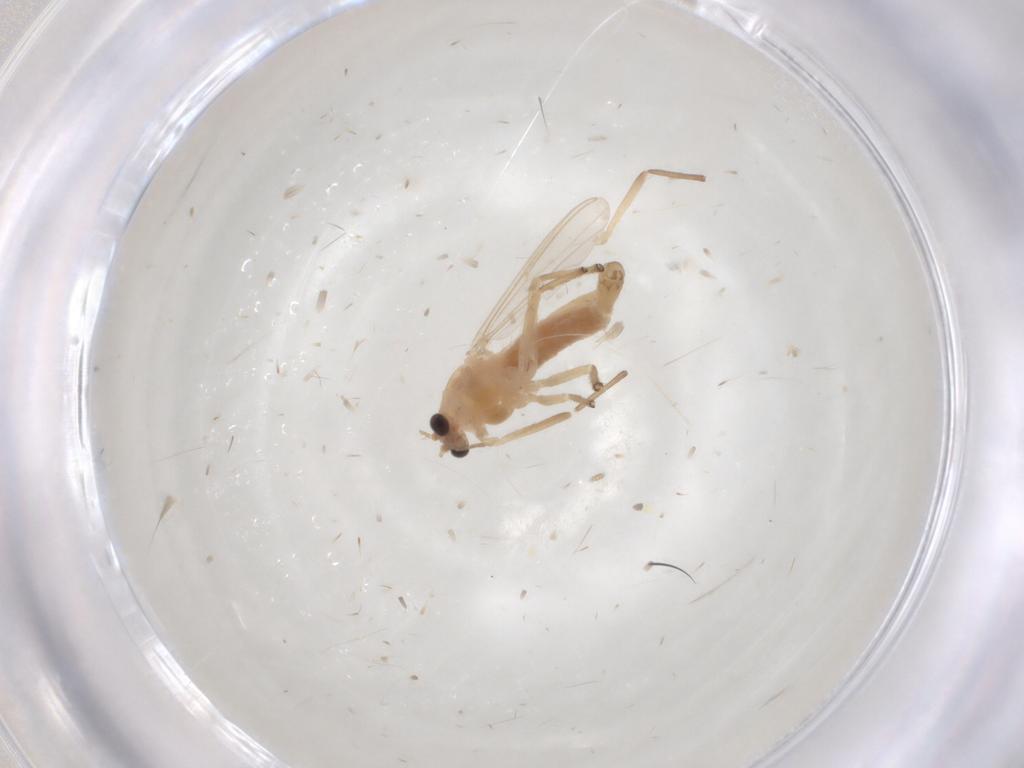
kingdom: Animalia
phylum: Arthropoda
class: Insecta
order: Diptera
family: Chironomidae
